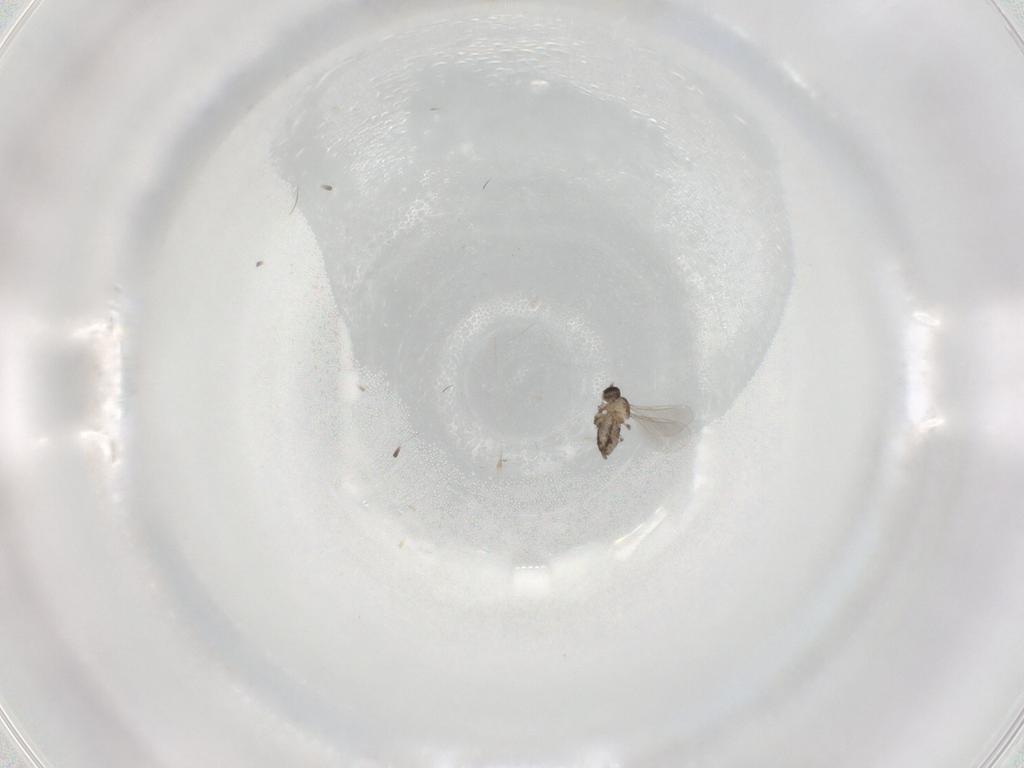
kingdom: Animalia
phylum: Arthropoda
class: Insecta
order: Diptera
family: Cecidomyiidae
